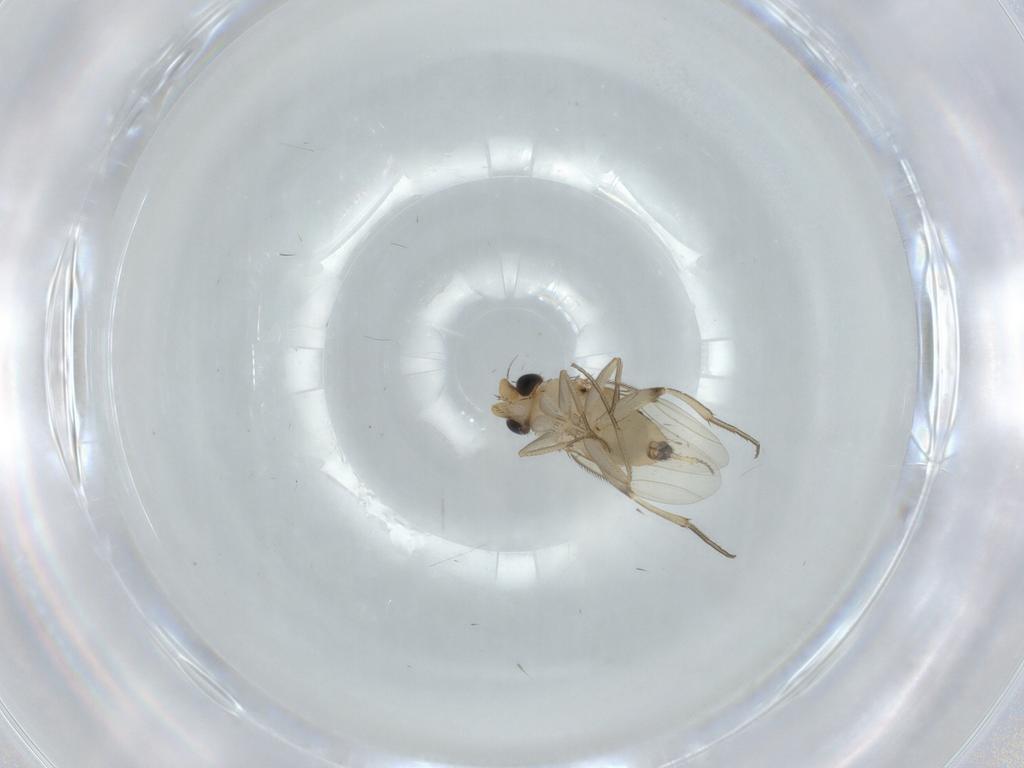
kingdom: Animalia
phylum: Arthropoda
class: Insecta
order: Diptera
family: Phoridae
